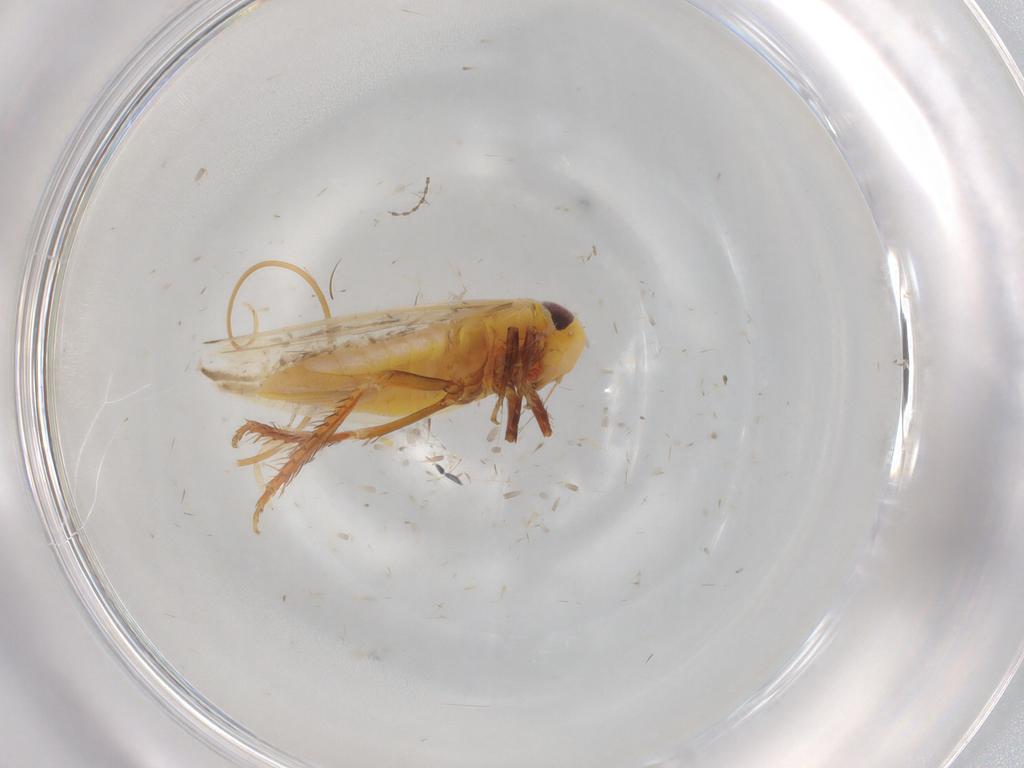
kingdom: Animalia
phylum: Arthropoda
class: Insecta
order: Hemiptera
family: Cicadellidae
